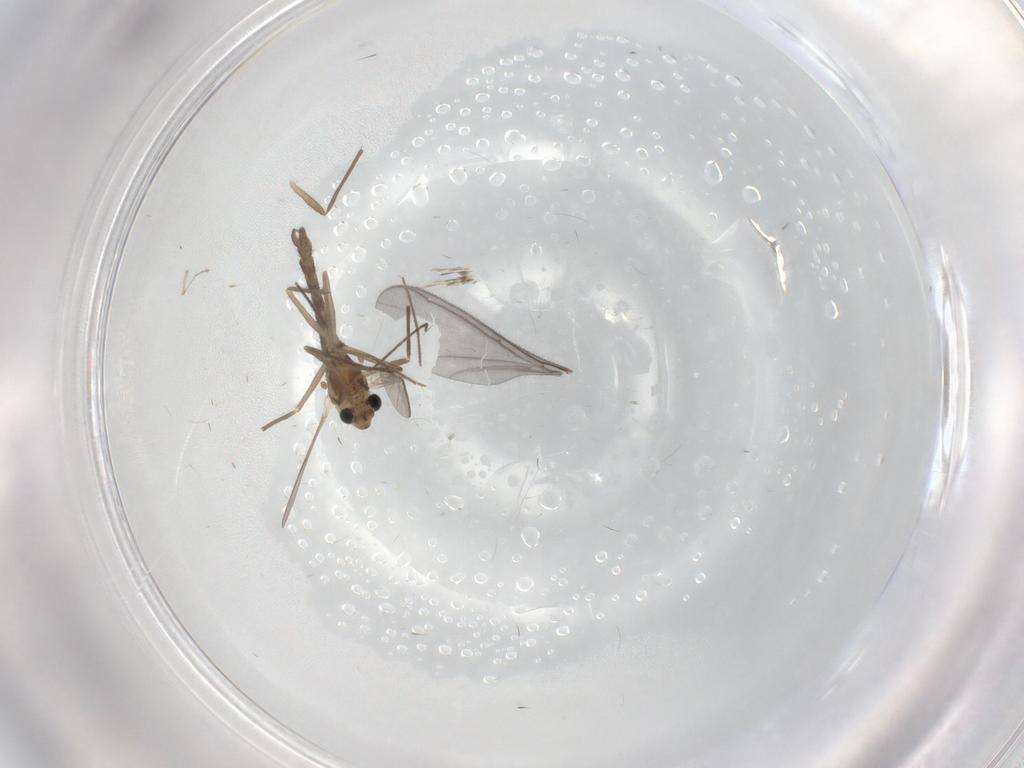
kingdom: Animalia
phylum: Arthropoda
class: Insecta
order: Diptera
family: Chironomidae
